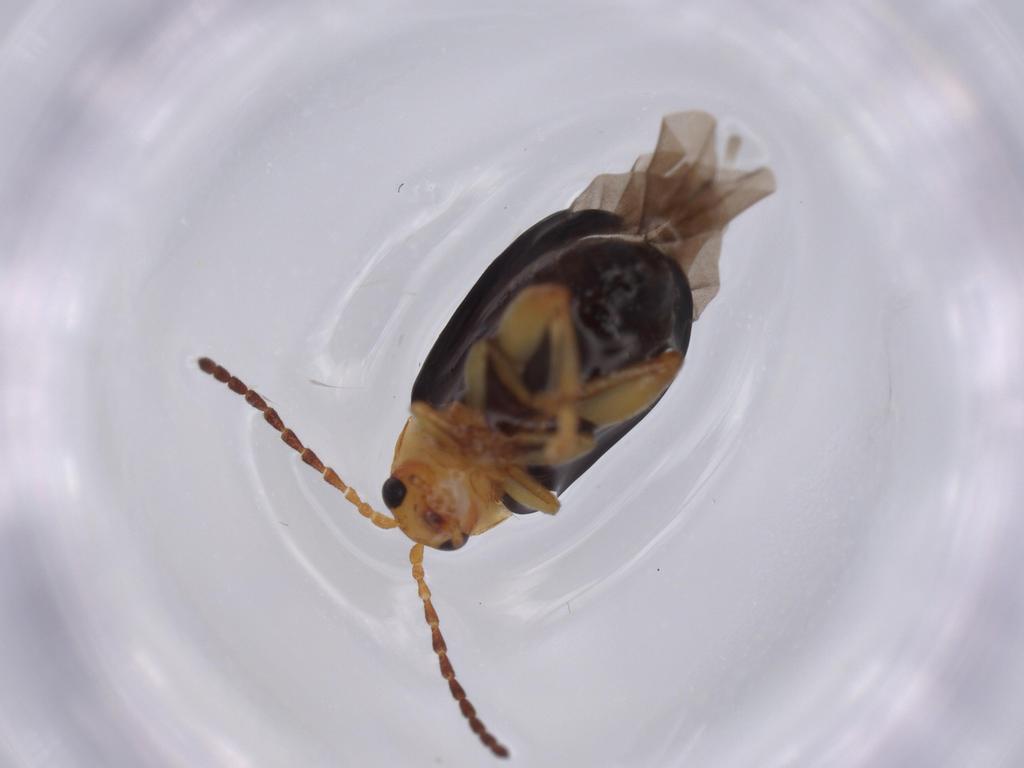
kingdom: Animalia
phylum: Arthropoda
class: Insecta
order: Coleoptera
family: Chrysomelidae
